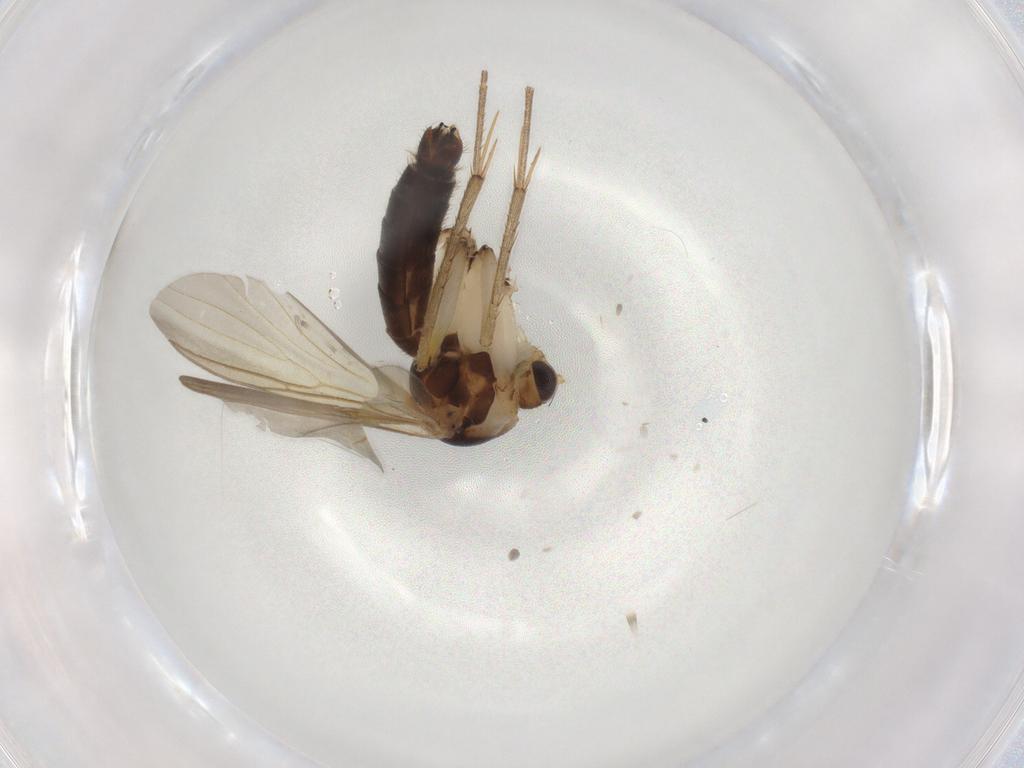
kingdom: Animalia
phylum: Arthropoda
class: Insecta
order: Diptera
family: Mycetophilidae
